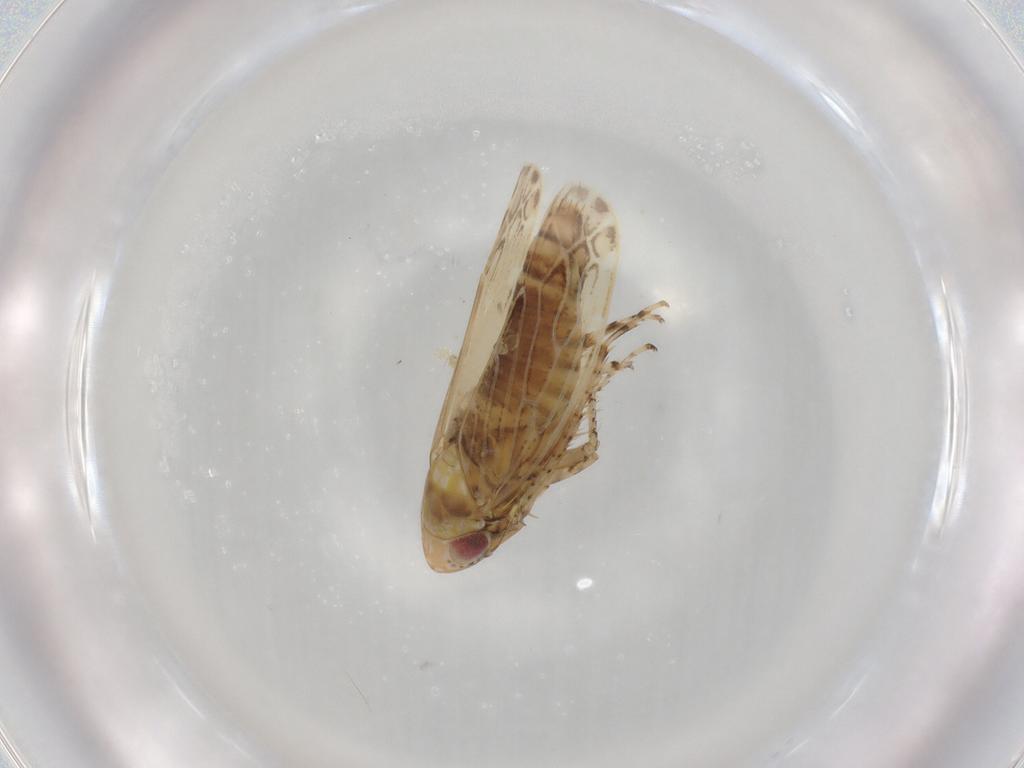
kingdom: Animalia
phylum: Arthropoda
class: Insecta
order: Hemiptera
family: Cicadellidae
